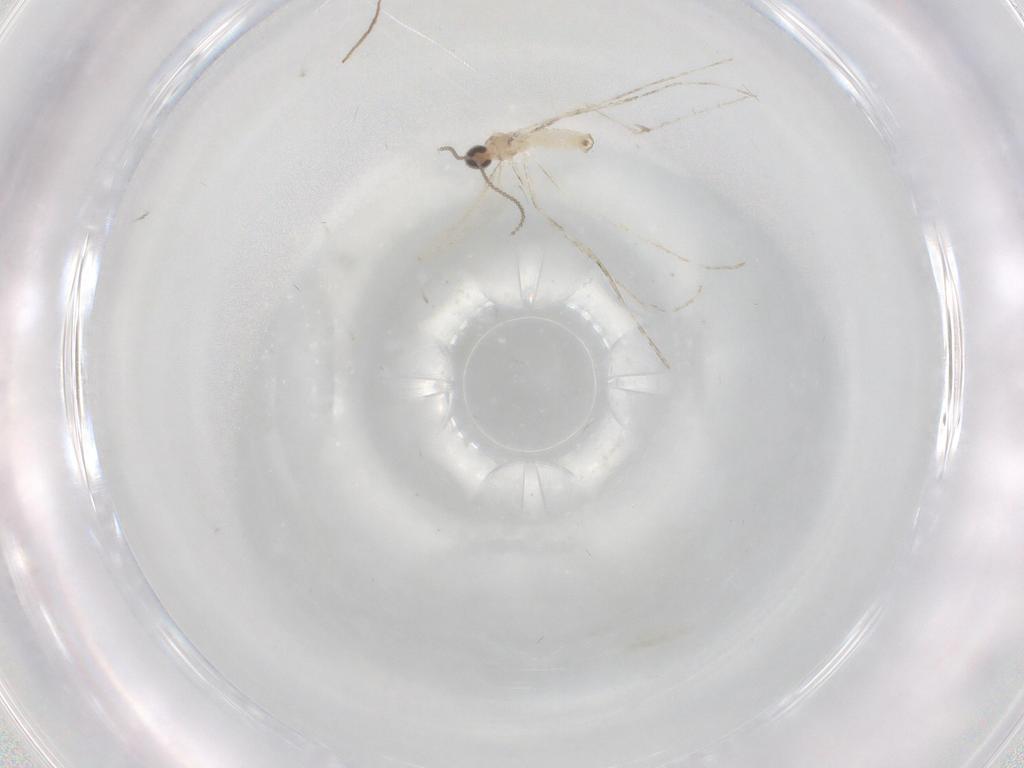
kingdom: Animalia
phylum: Arthropoda
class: Insecta
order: Diptera
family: Cecidomyiidae
